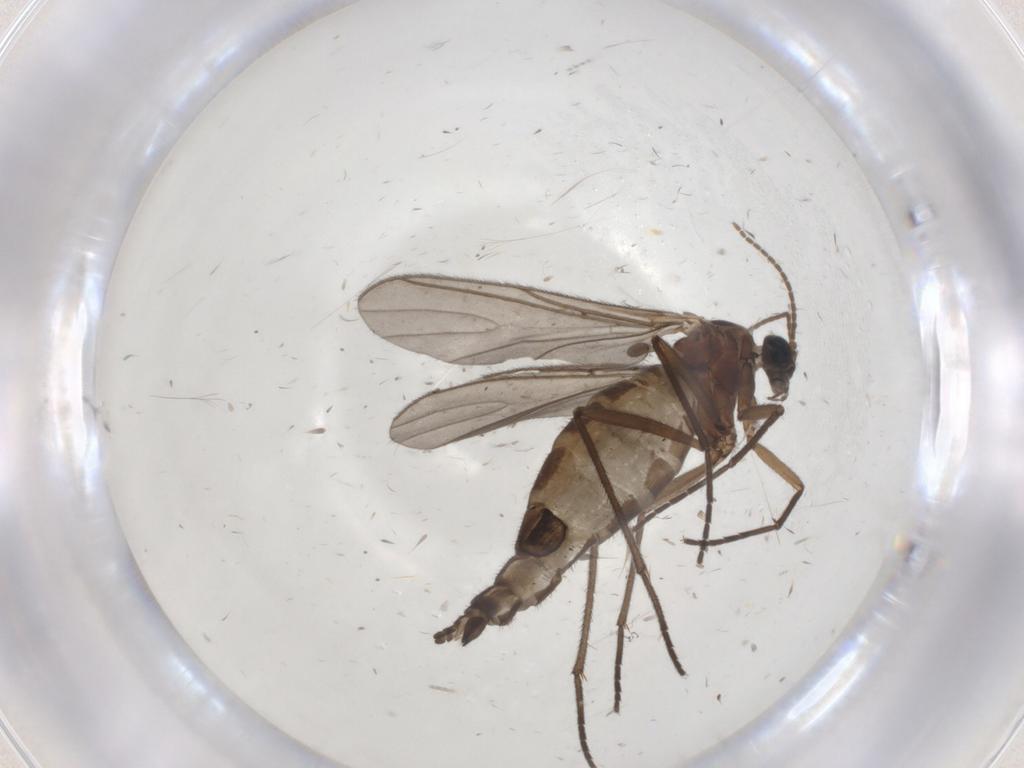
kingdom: Animalia
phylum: Arthropoda
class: Insecta
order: Diptera
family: Sciaridae
